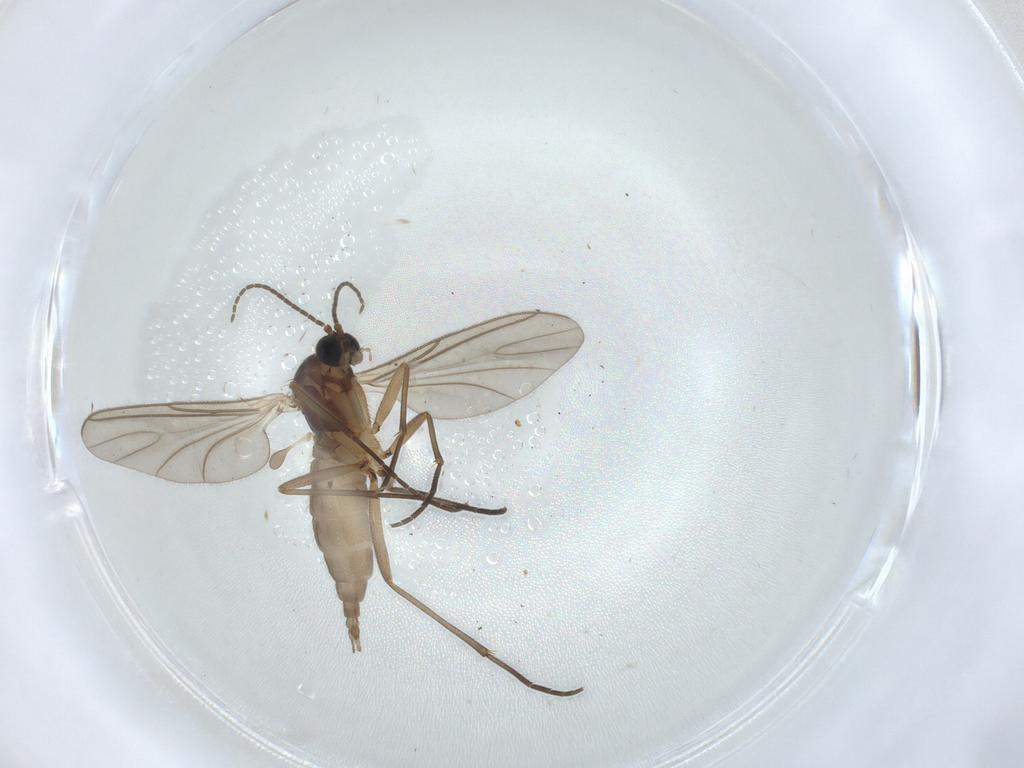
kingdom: Animalia
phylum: Arthropoda
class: Insecta
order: Diptera
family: Sciaridae
